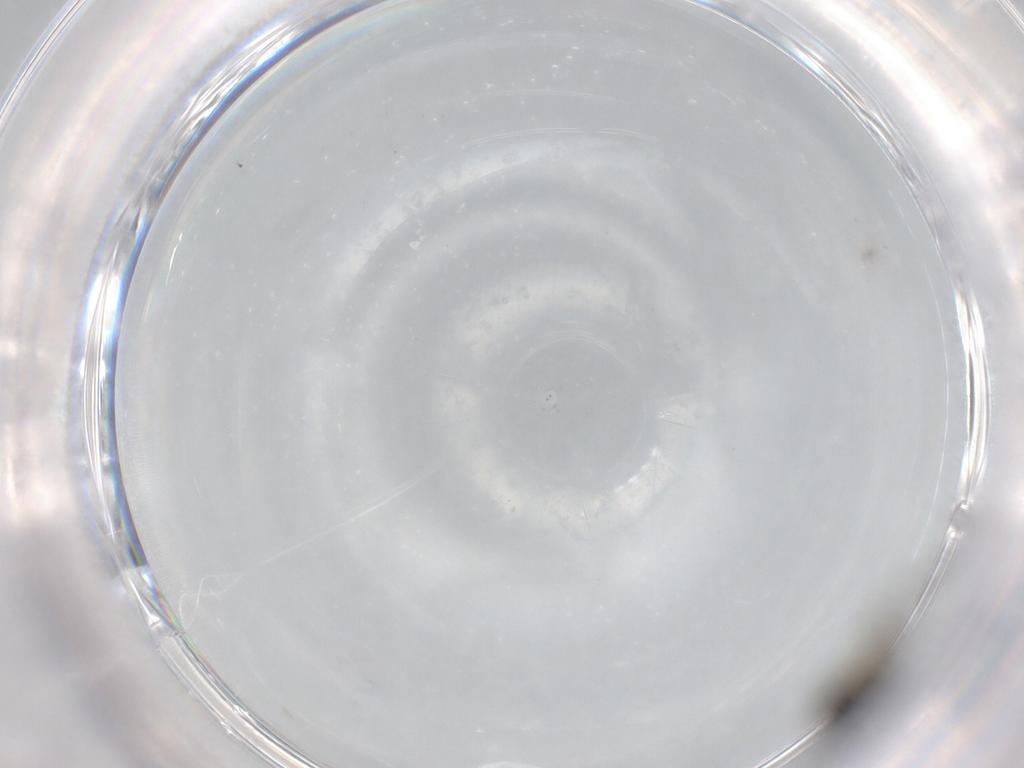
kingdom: Animalia
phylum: Arthropoda
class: Insecta
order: Diptera
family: Sciaridae
